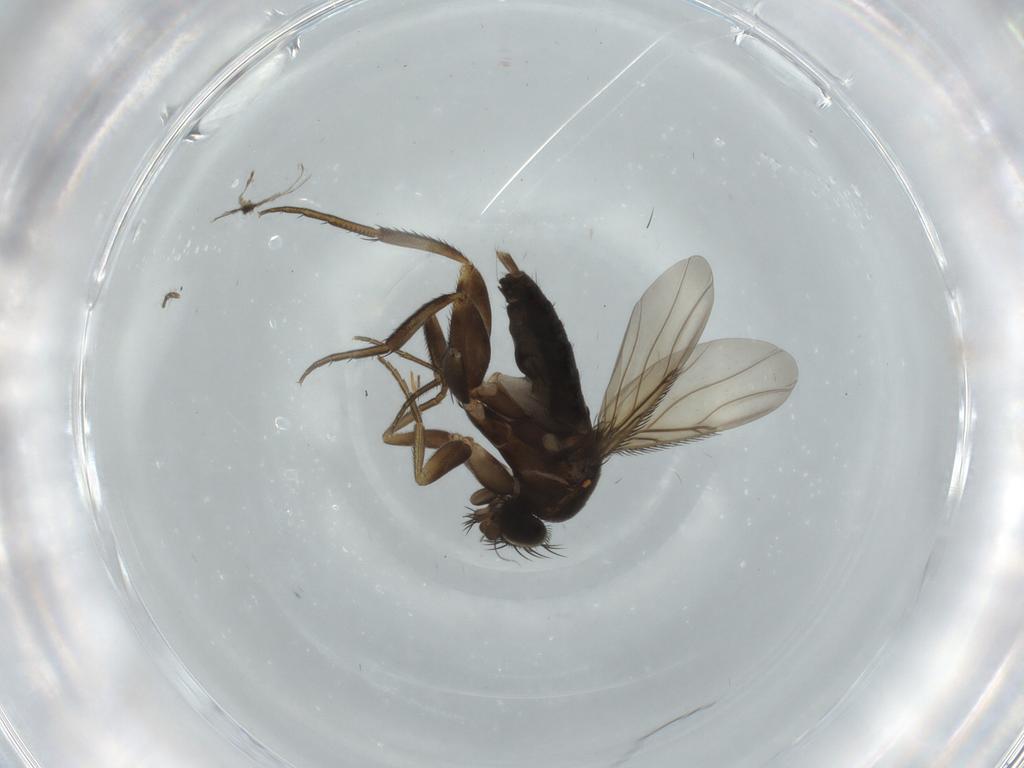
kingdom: Animalia
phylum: Arthropoda
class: Insecta
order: Diptera
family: Phoridae
